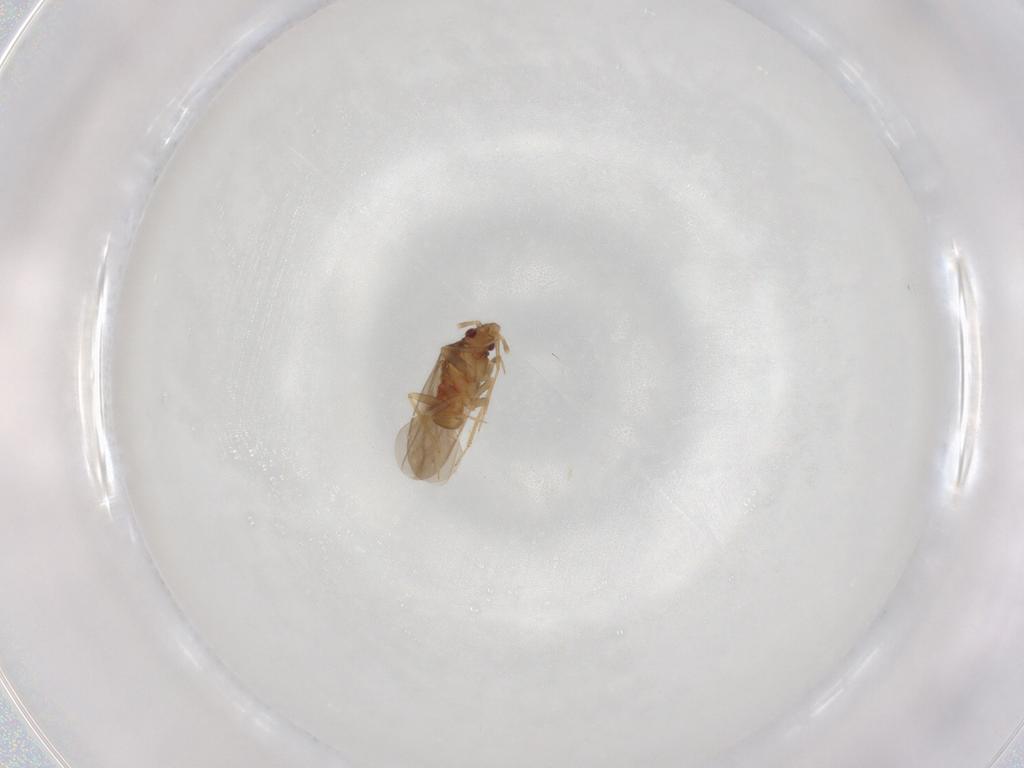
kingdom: Animalia
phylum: Arthropoda
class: Insecta
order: Hemiptera
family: Ceratocombidae
